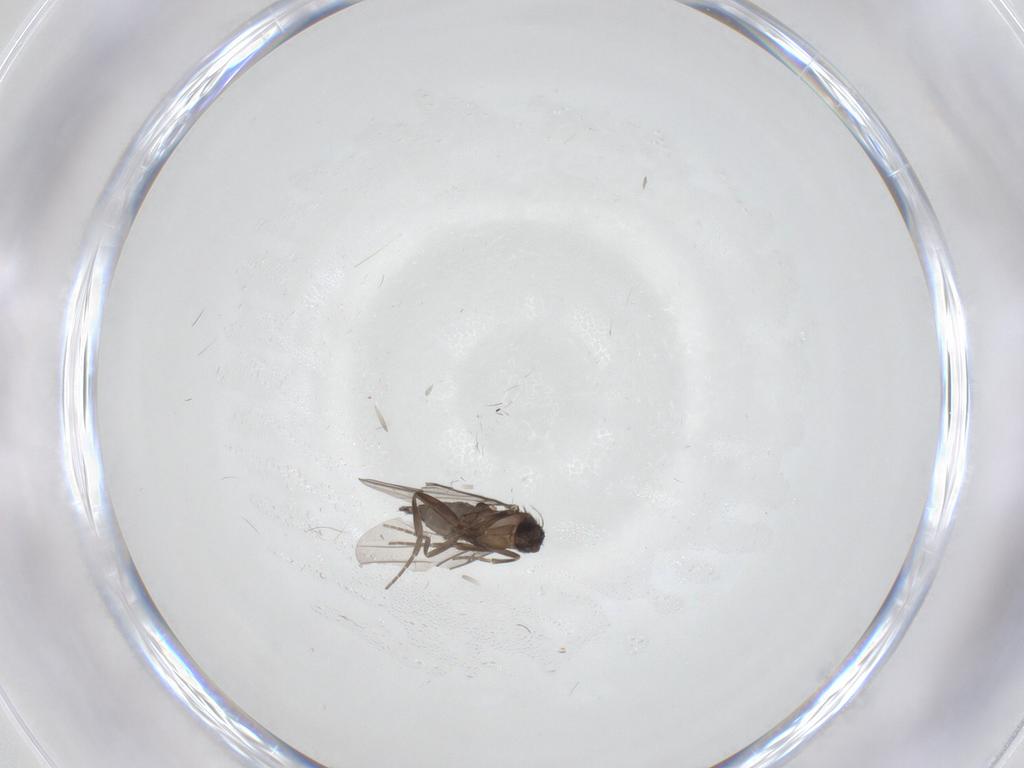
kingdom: Animalia
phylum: Arthropoda
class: Insecta
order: Diptera
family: Phoridae
